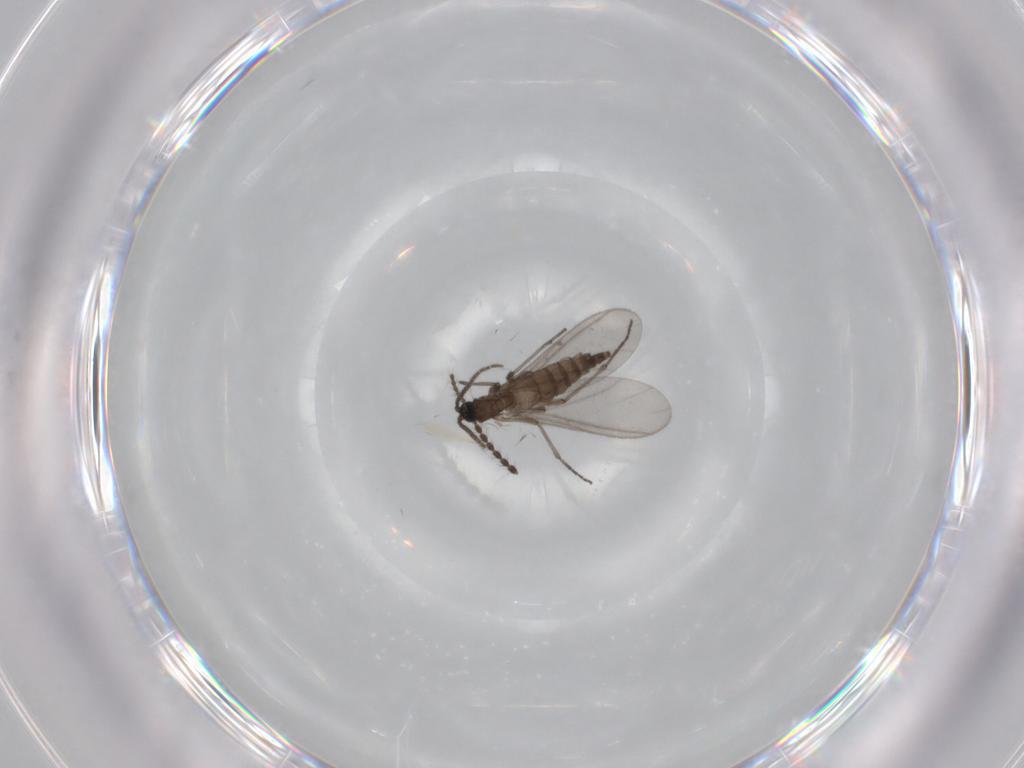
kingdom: Animalia
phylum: Arthropoda
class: Insecta
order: Diptera
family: Sciaridae
